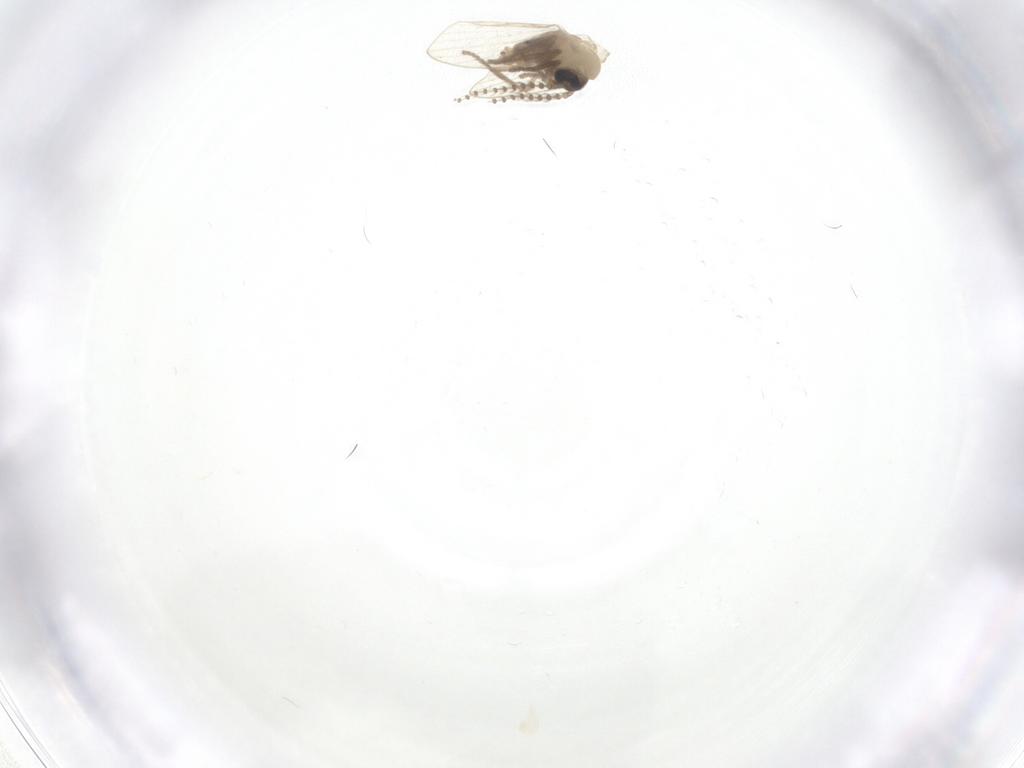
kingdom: Animalia
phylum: Arthropoda
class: Insecta
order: Diptera
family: Psychodidae
